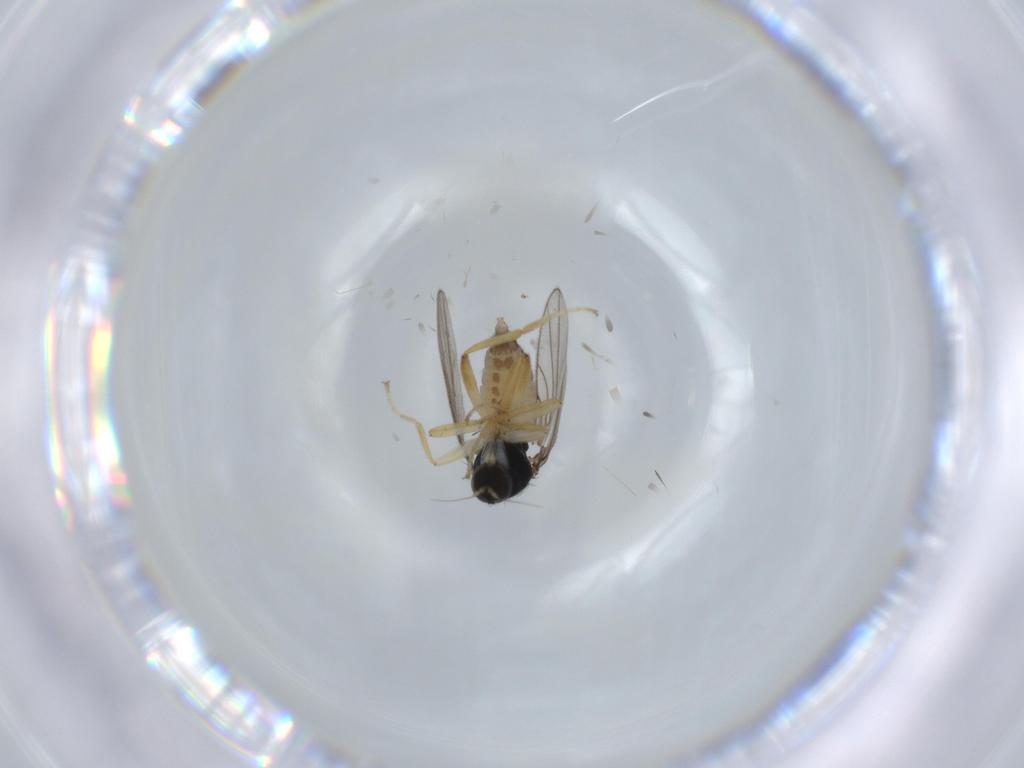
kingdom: Animalia
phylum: Arthropoda
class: Insecta
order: Diptera
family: Hybotidae
